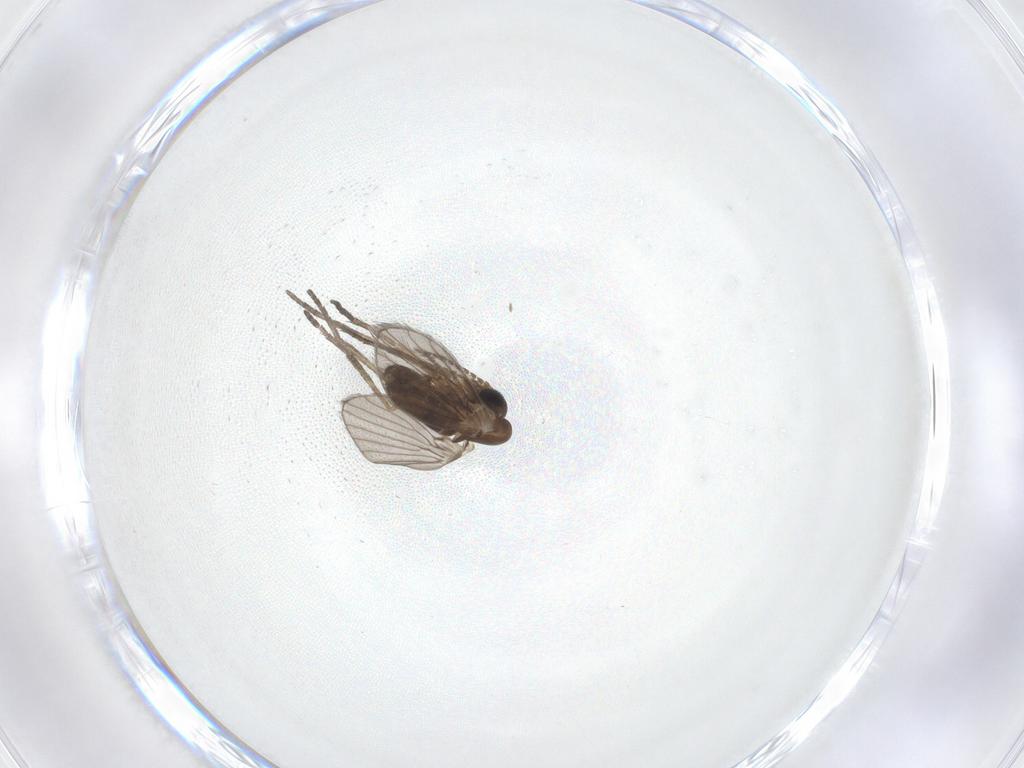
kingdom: Animalia
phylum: Arthropoda
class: Insecta
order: Diptera
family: Psychodidae
